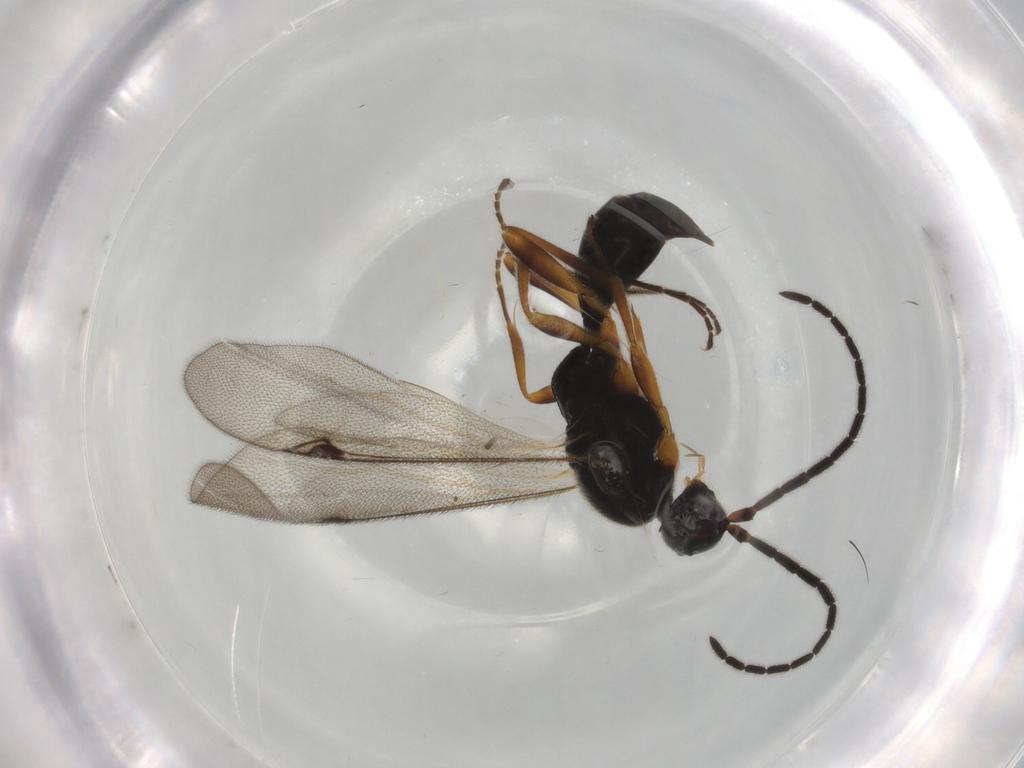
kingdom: Animalia
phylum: Arthropoda
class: Insecta
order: Hymenoptera
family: Proctotrupidae
